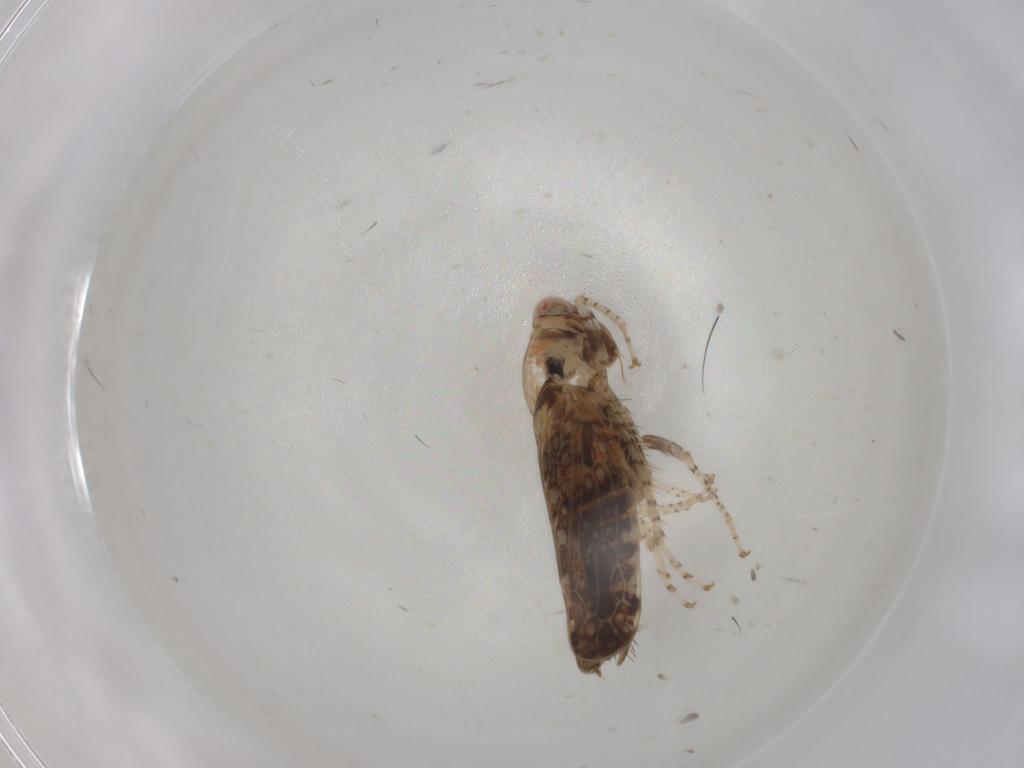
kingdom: Animalia
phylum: Arthropoda
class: Insecta
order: Hemiptera
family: Cicadellidae
